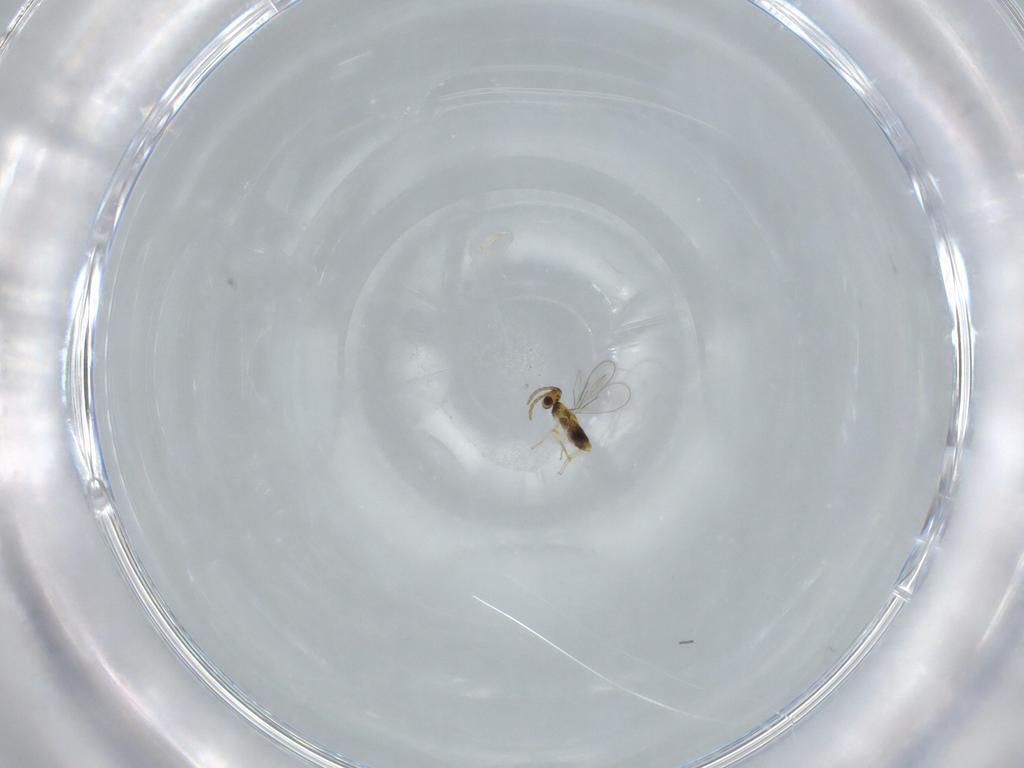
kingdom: Animalia
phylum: Arthropoda
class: Insecta
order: Hymenoptera
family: Aphelinidae
